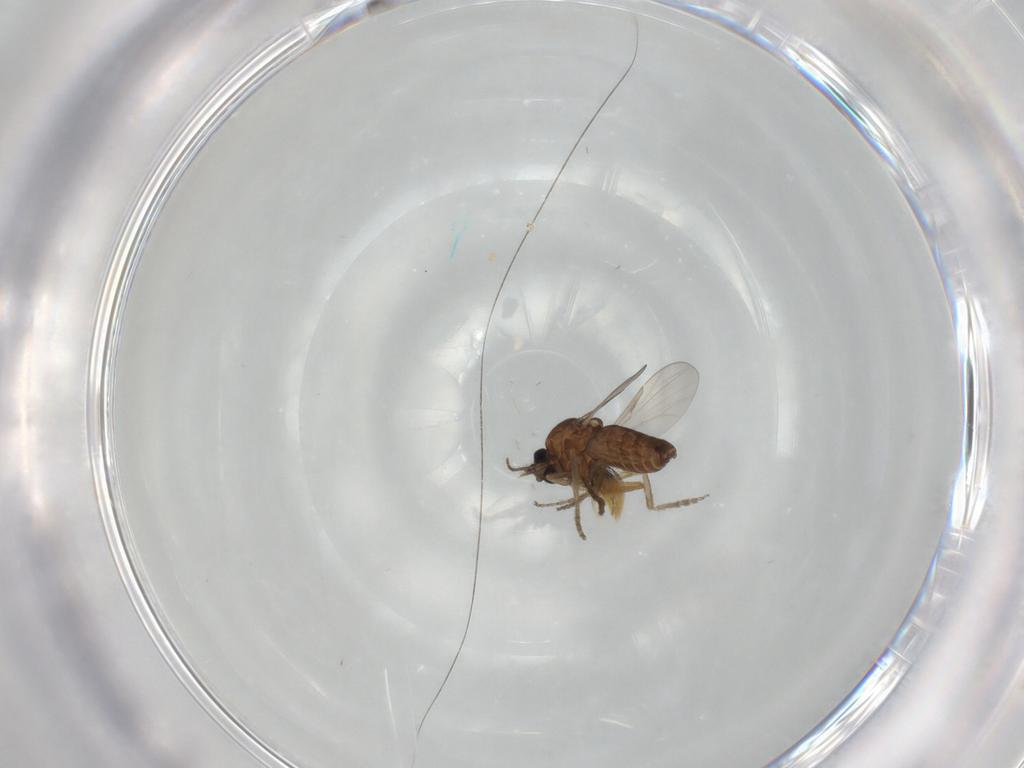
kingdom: Animalia
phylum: Arthropoda
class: Insecta
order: Diptera
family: Ceratopogonidae
